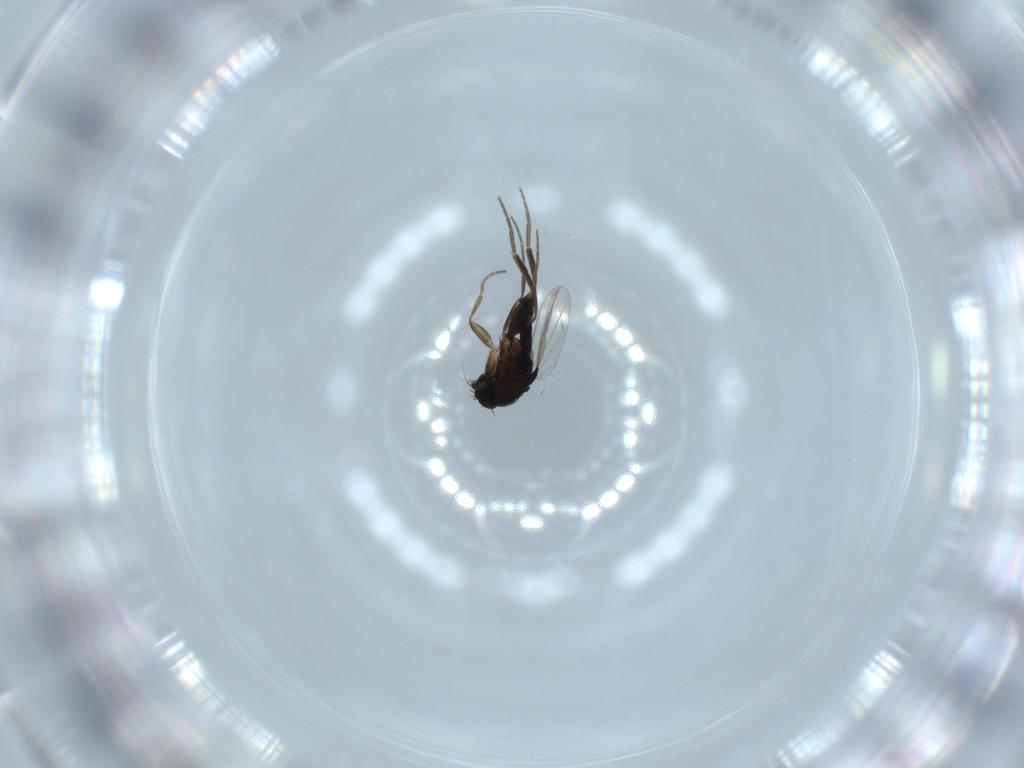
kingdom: Animalia
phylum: Arthropoda
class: Insecta
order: Diptera
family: Phoridae
